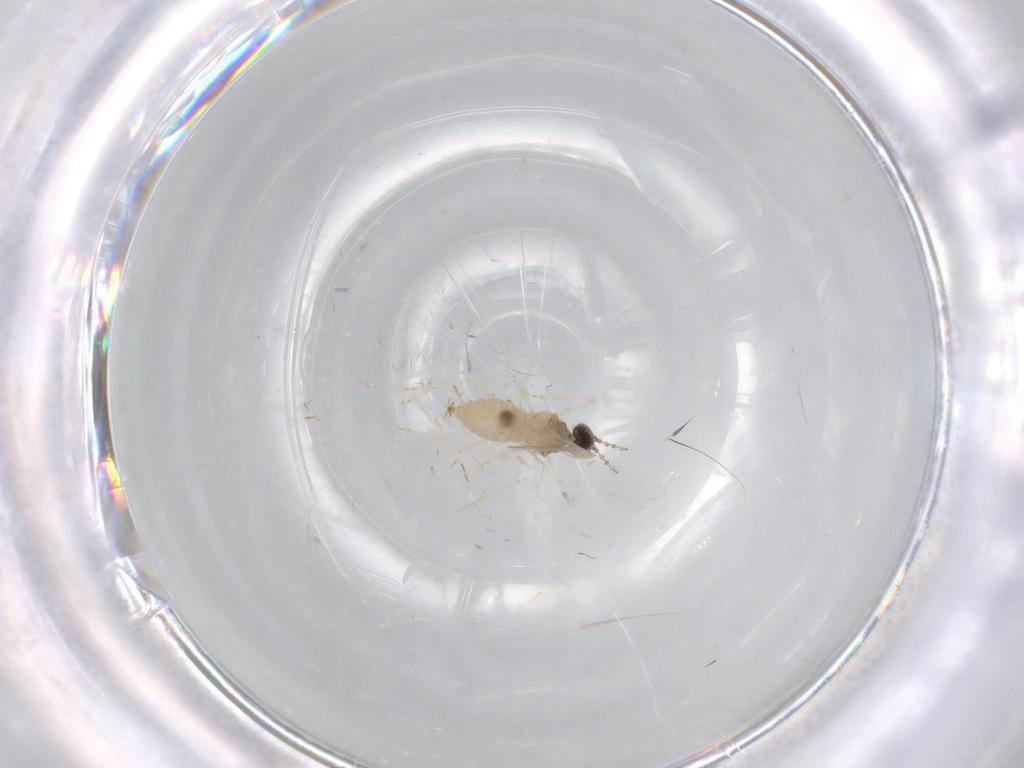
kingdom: Animalia
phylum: Arthropoda
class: Insecta
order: Diptera
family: Cecidomyiidae
